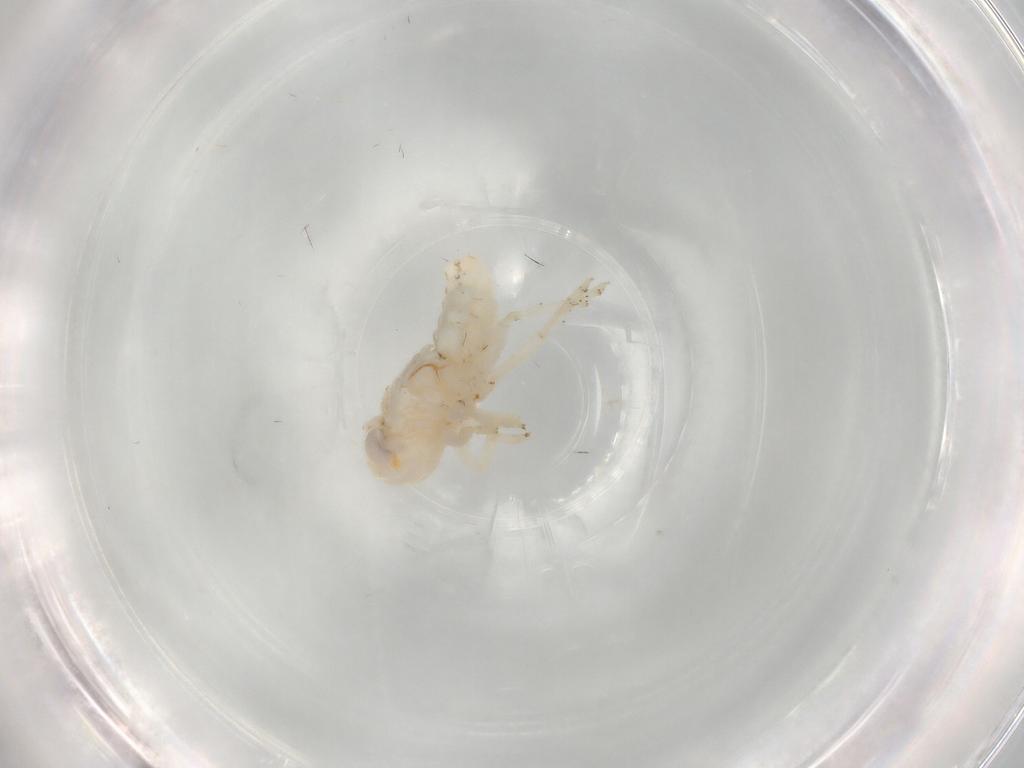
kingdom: Animalia
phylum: Arthropoda
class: Insecta
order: Hemiptera
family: Nogodinidae
